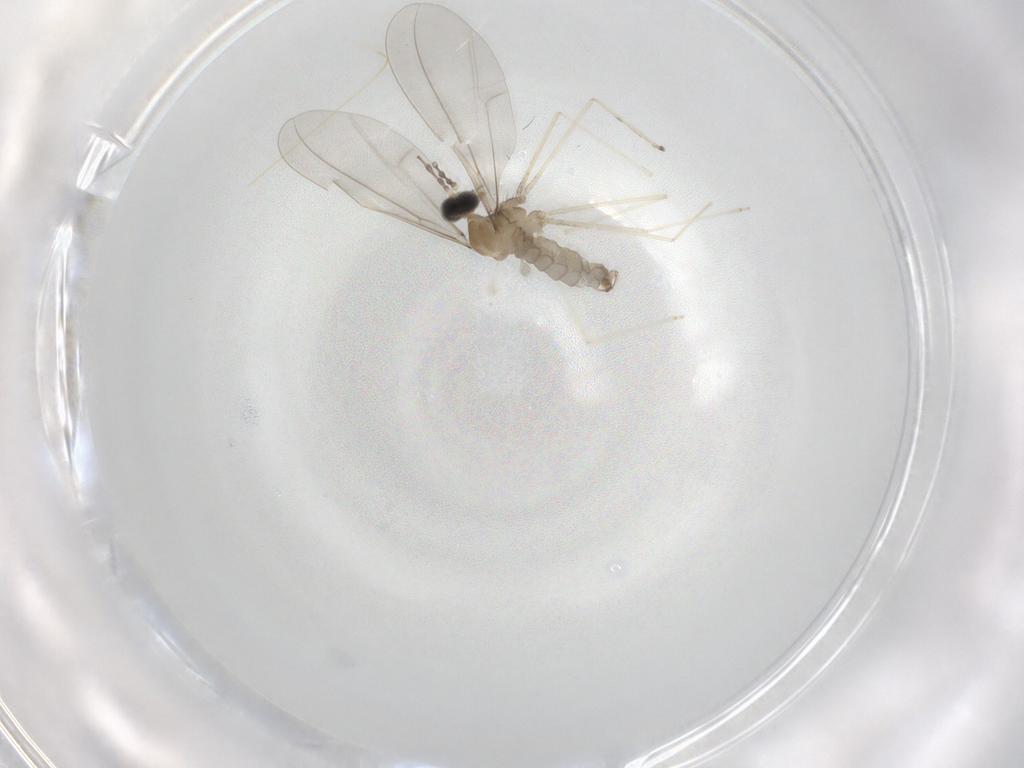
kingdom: Animalia
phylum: Arthropoda
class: Insecta
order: Diptera
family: Cecidomyiidae
